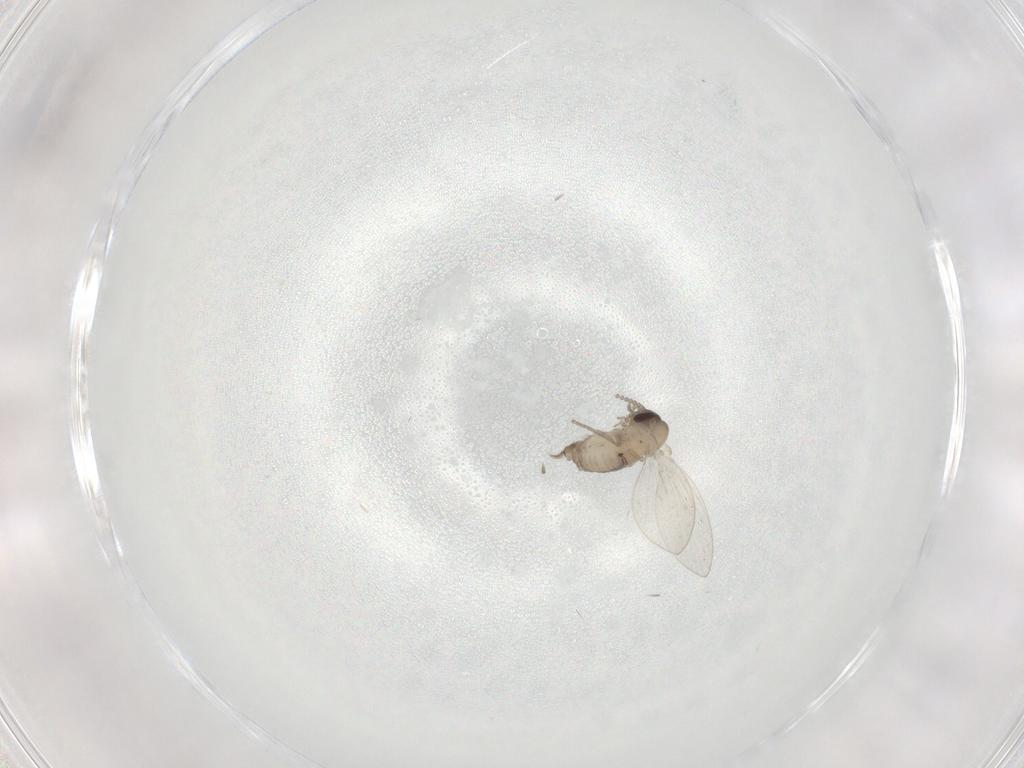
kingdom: Animalia
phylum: Arthropoda
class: Insecta
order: Diptera
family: Psychodidae
